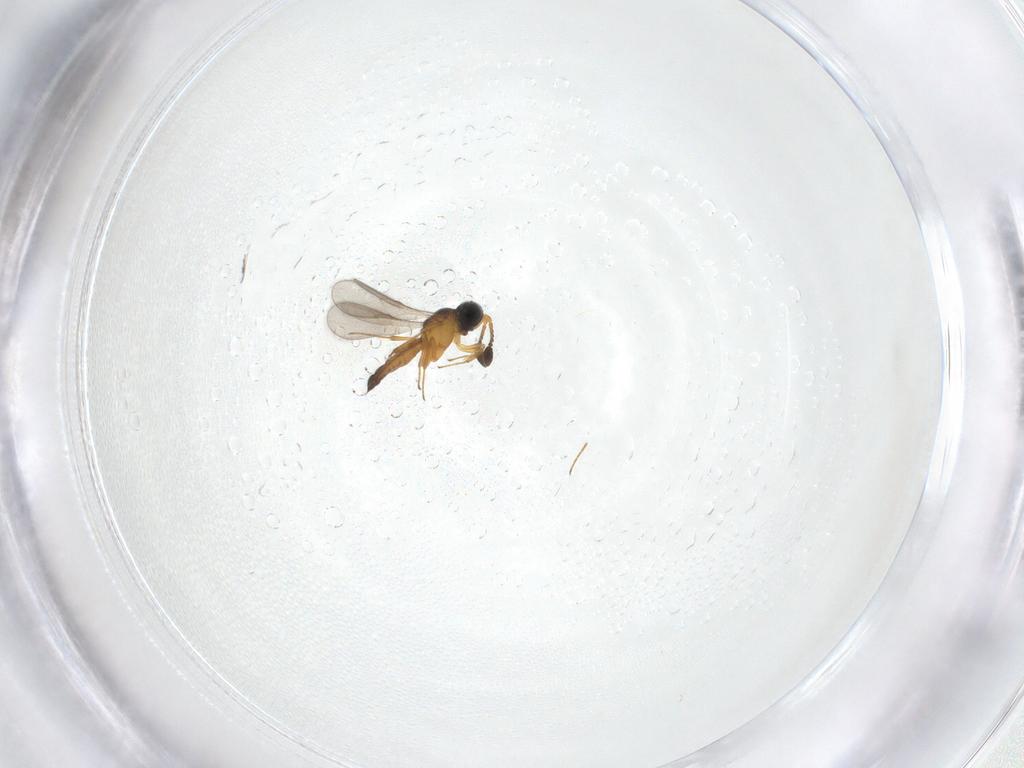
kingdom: Animalia
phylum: Arthropoda
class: Insecta
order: Hymenoptera
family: Scelionidae
